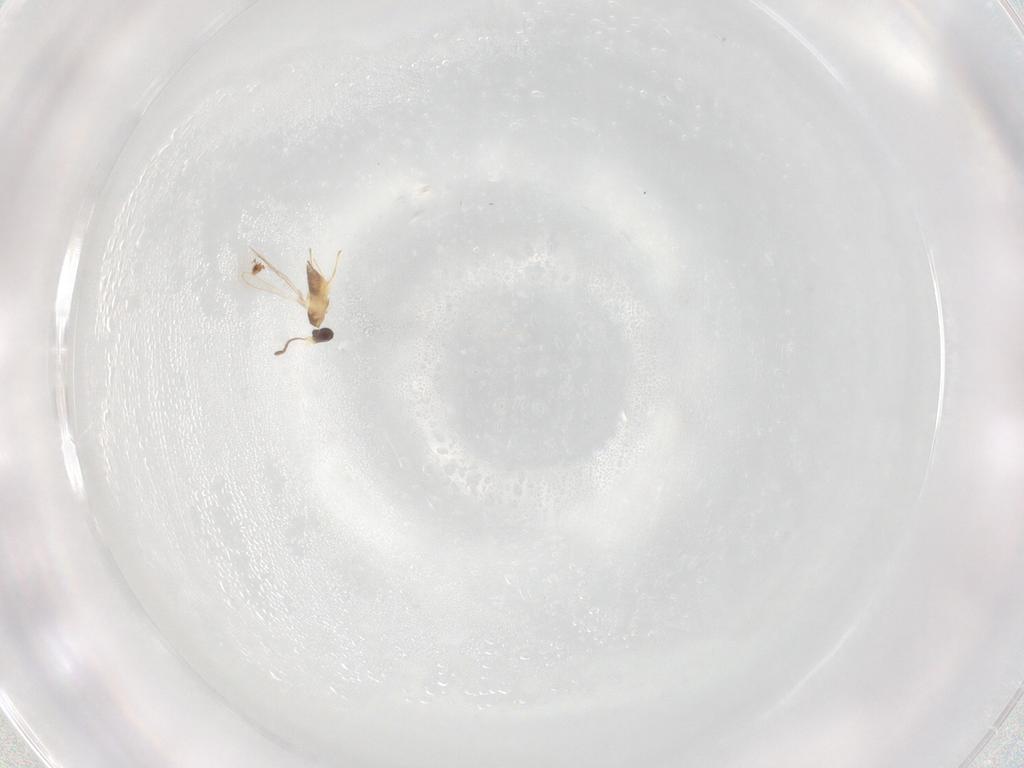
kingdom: Animalia
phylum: Arthropoda
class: Insecta
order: Hymenoptera
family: Mymaridae
